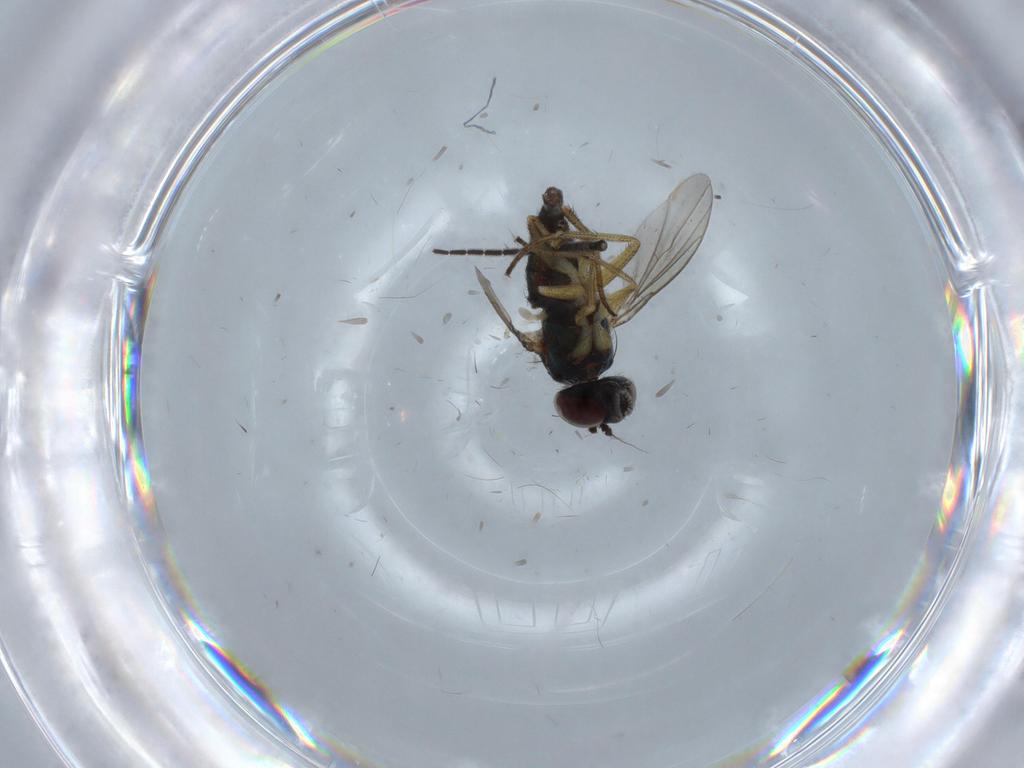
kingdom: Animalia
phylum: Arthropoda
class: Insecta
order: Diptera
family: Sciaridae
